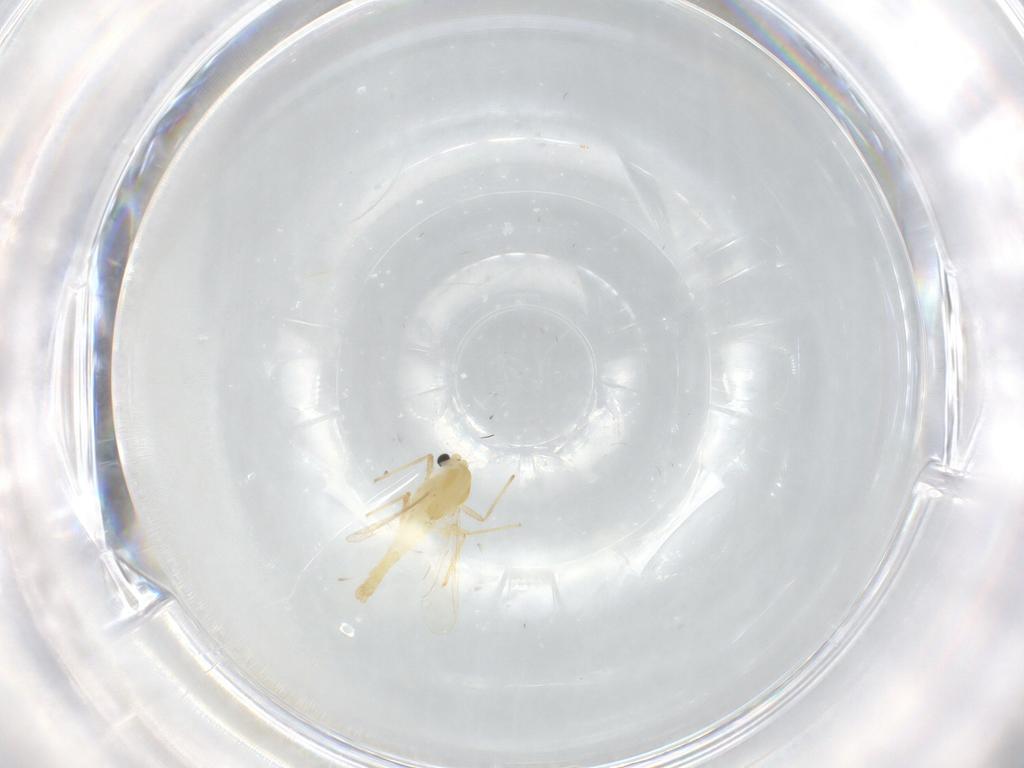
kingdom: Animalia
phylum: Arthropoda
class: Insecta
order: Diptera
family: Chironomidae
